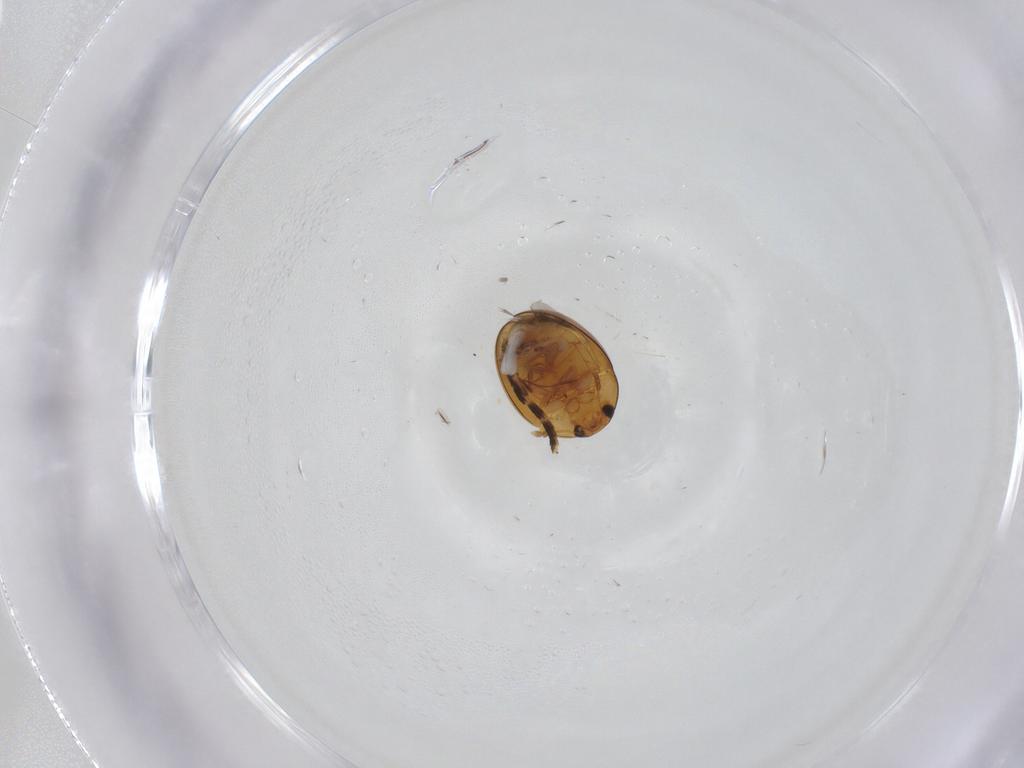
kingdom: Animalia
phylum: Arthropoda
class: Insecta
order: Coleoptera
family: Phalacridae
